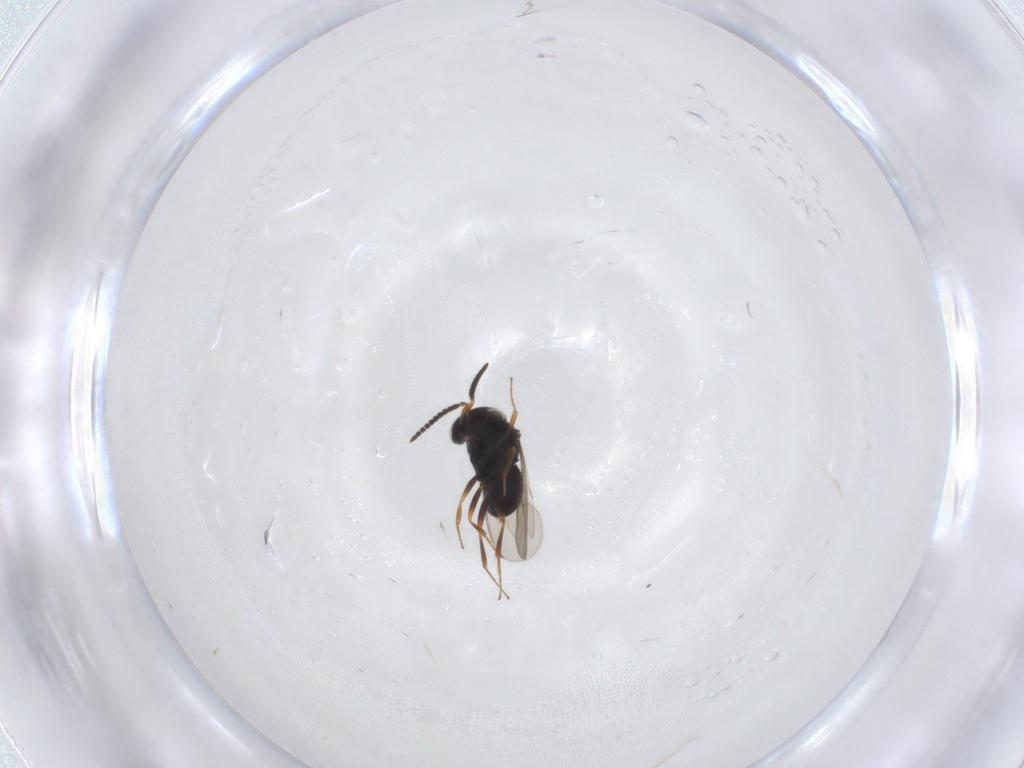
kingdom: Animalia
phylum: Arthropoda
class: Insecta
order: Hymenoptera
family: Scelionidae
